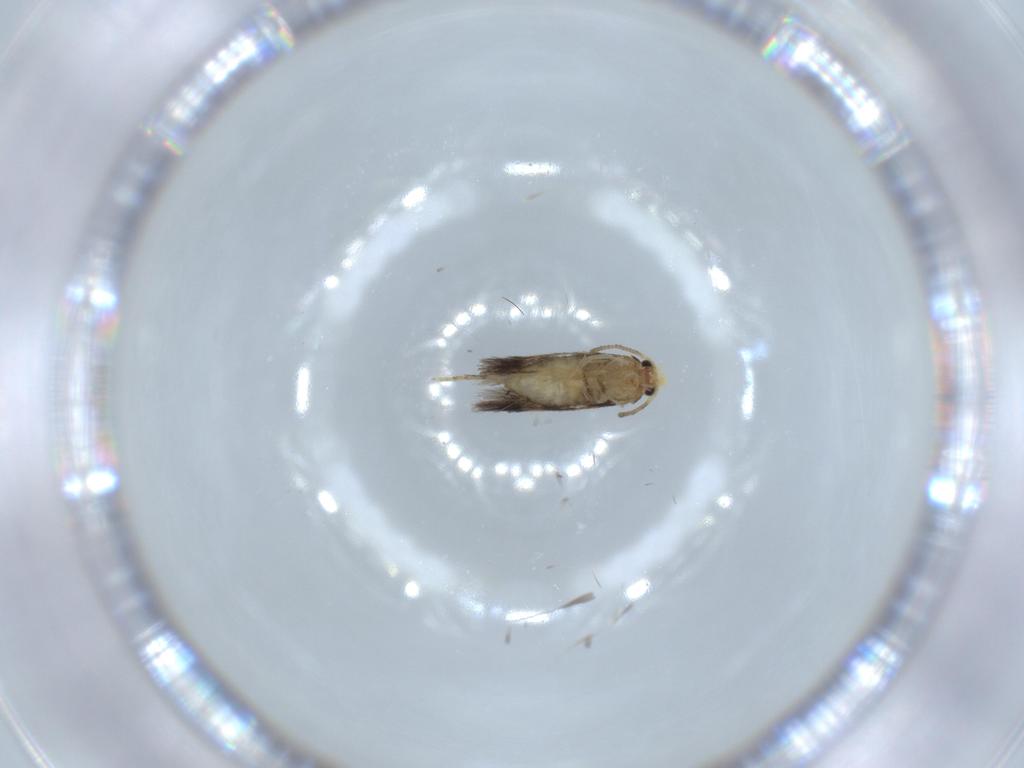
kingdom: Animalia
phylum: Arthropoda
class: Insecta
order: Lepidoptera
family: Nepticulidae
